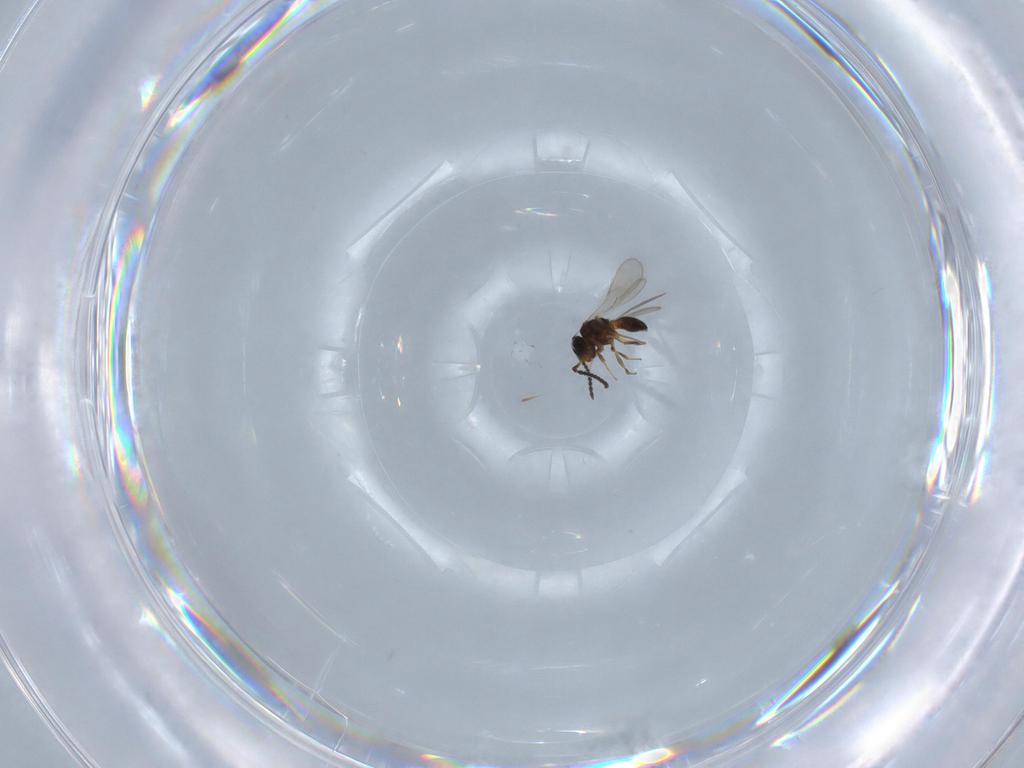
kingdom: Animalia
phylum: Arthropoda
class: Insecta
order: Hymenoptera
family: Scelionidae
